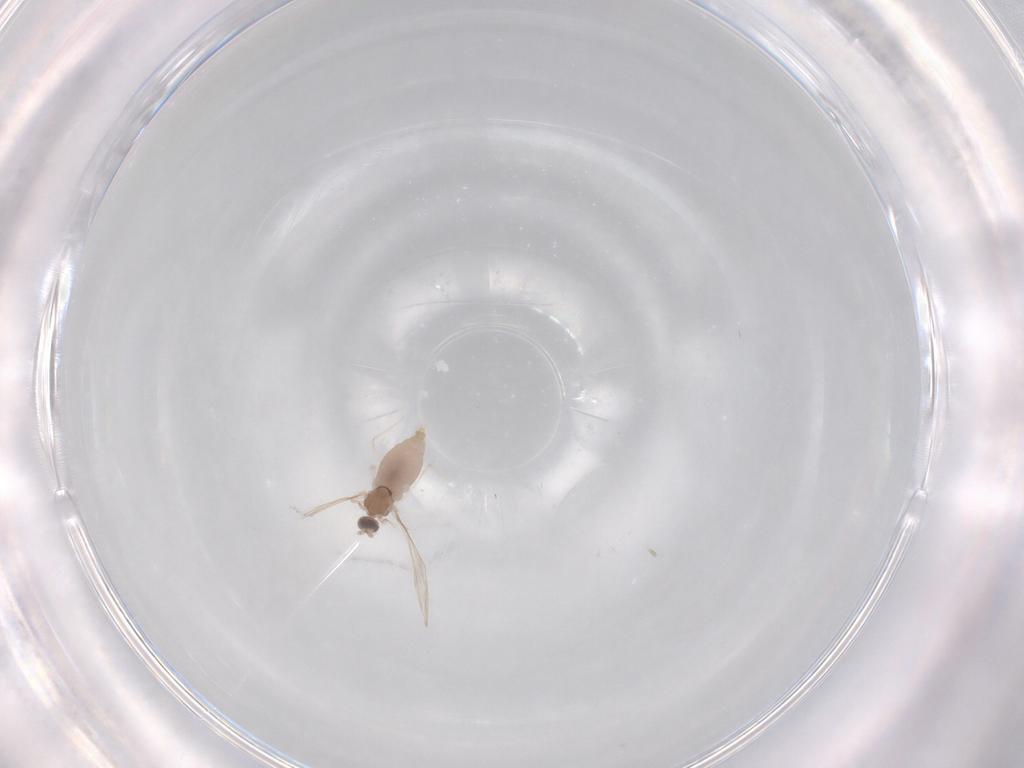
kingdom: Animalia
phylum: Arthropoda
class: Insecta
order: Diptera
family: Cecidomyiidae
